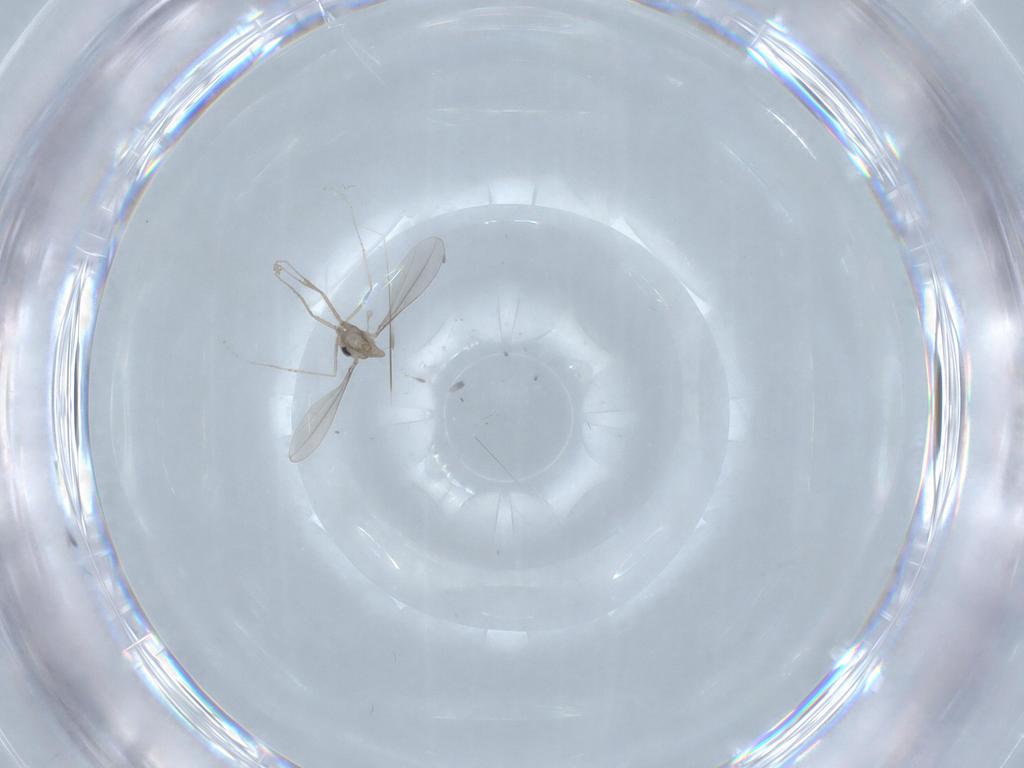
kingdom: Animalia
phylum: Arthropoda
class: Insecta
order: Diptera
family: Cecidomyiidae
